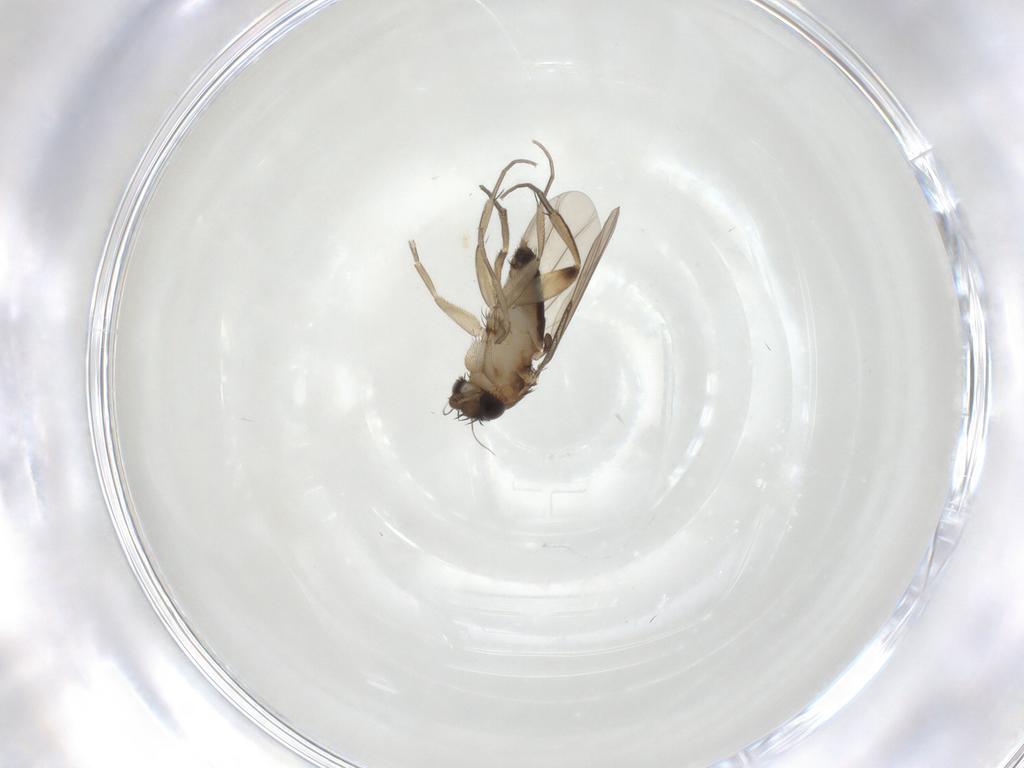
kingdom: Animalia
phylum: Arthropoda
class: Insecta
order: Diptera
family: Phoridae
